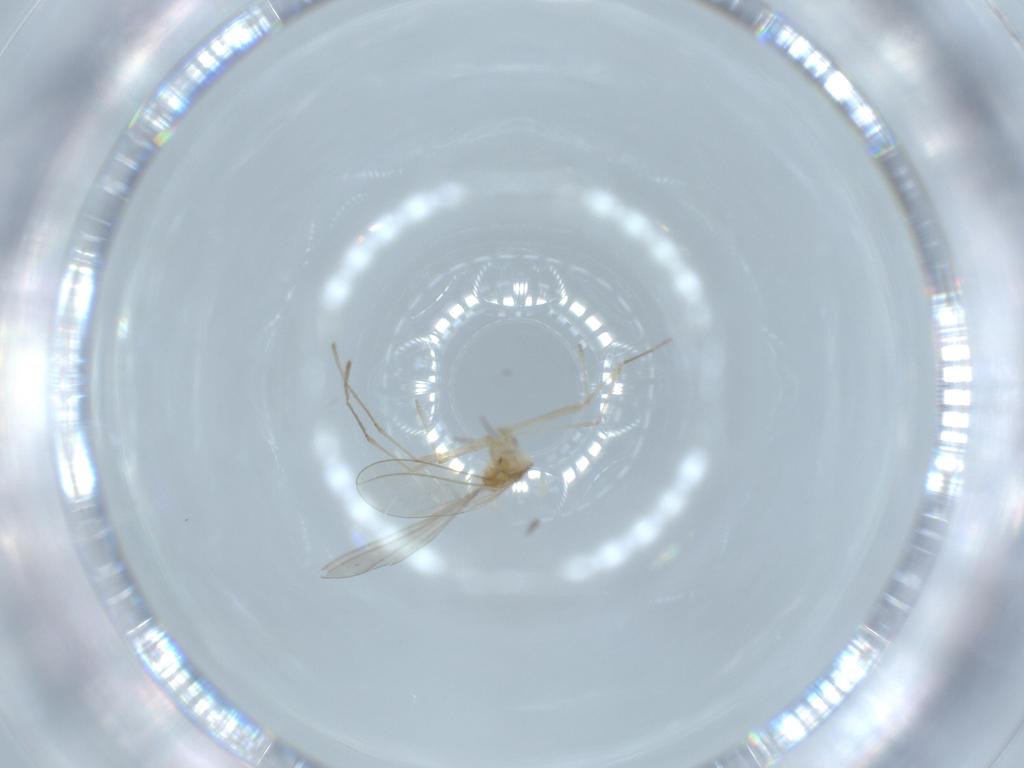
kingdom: Animalia
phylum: Arthropoda
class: Insecta
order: Diptera
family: Cecidomyiidae
